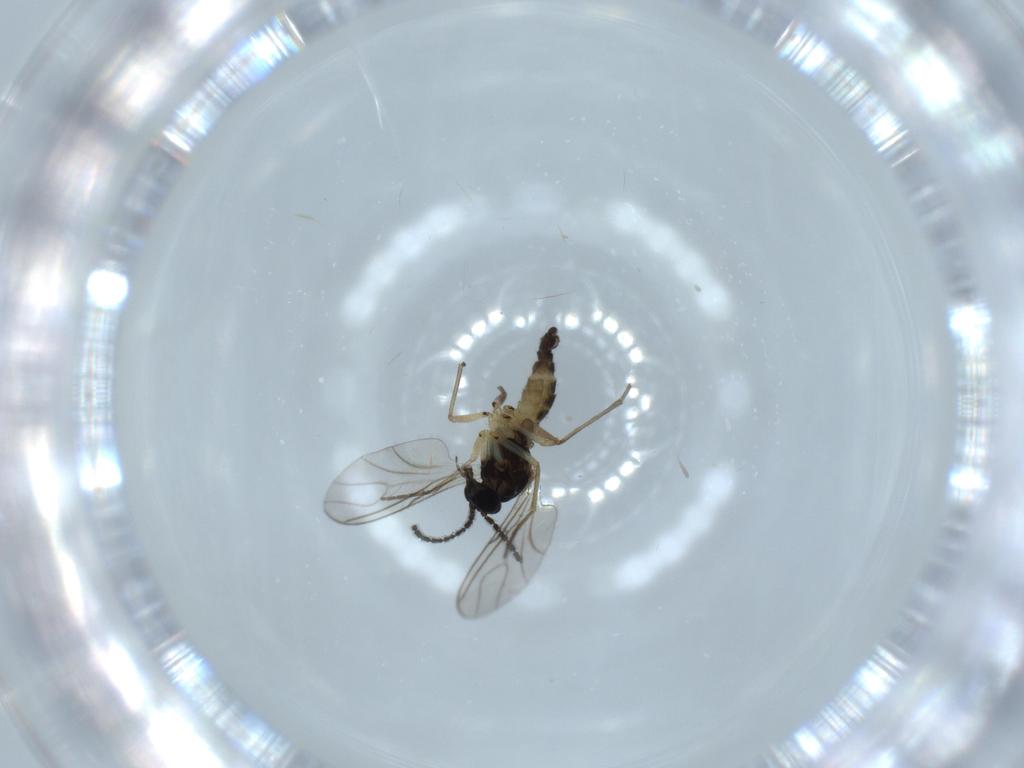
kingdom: Animalia
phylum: Arthropoda
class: Insecta
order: Diptera
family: Sciaridae
